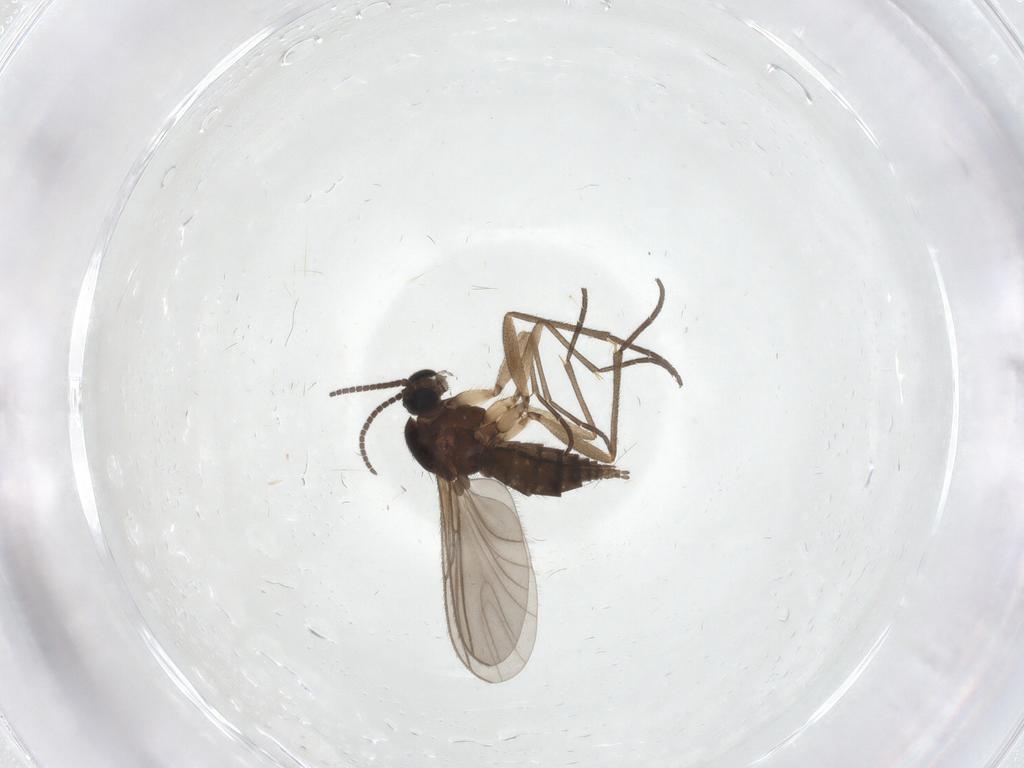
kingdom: Animalia
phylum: Arthropoda
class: Insecta
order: Diptera
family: Sciaridae
